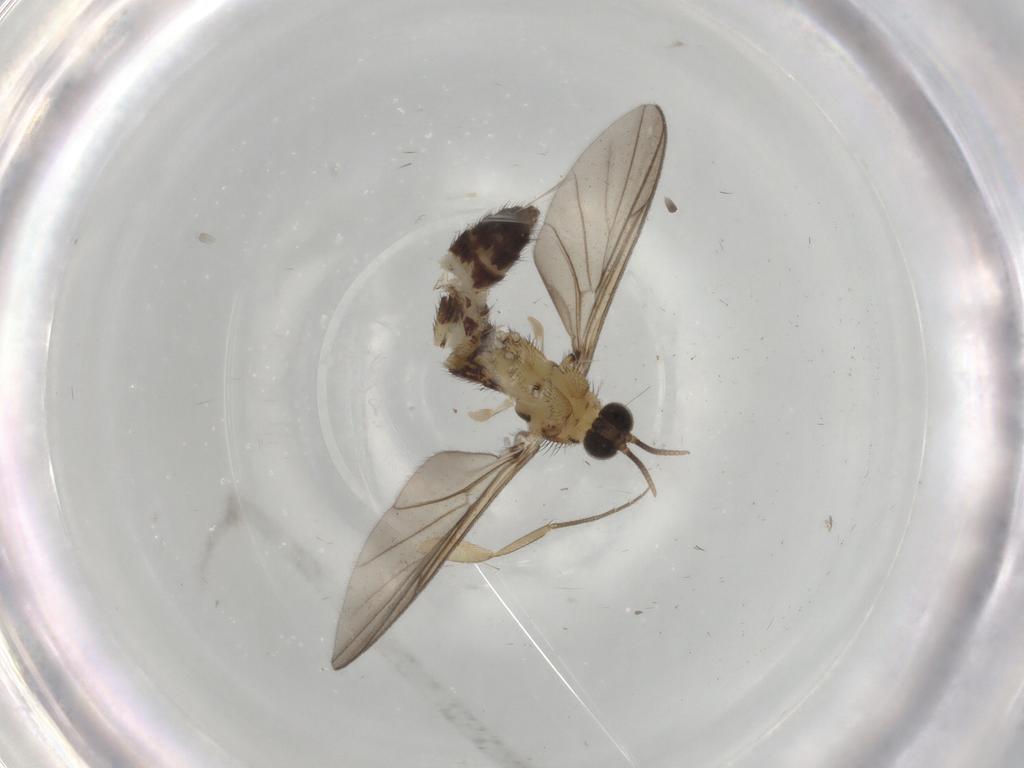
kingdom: Animalia
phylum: Arthropoda
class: Insecta
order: Diptera
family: Keroplatidae
